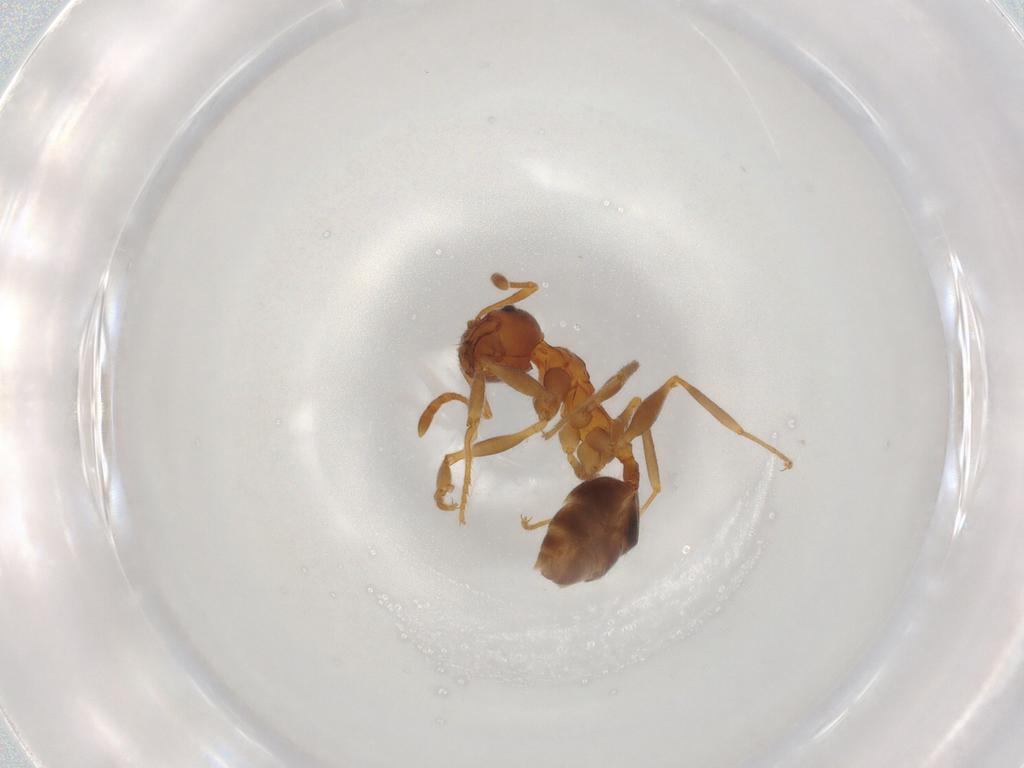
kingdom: Animalia
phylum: Arthropoda
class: Insecta
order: Hymenoptera
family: Formicidae
